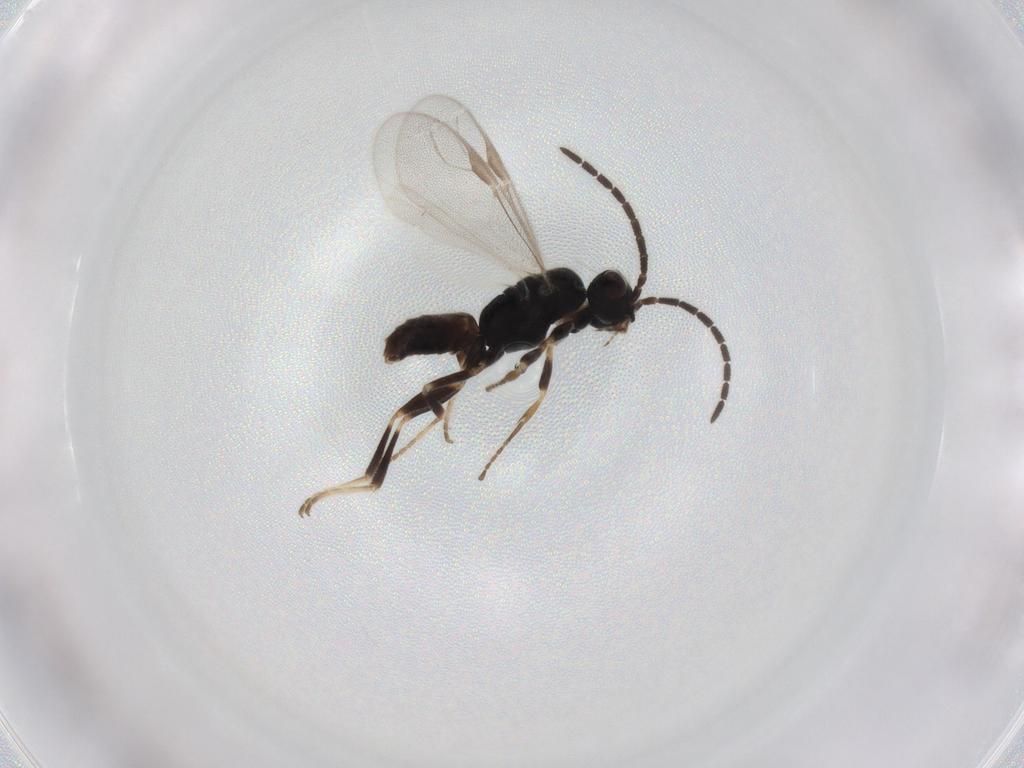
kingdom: Animalia
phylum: Arthropoda
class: Insecta
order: Hymenoptera
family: Dryinidae
